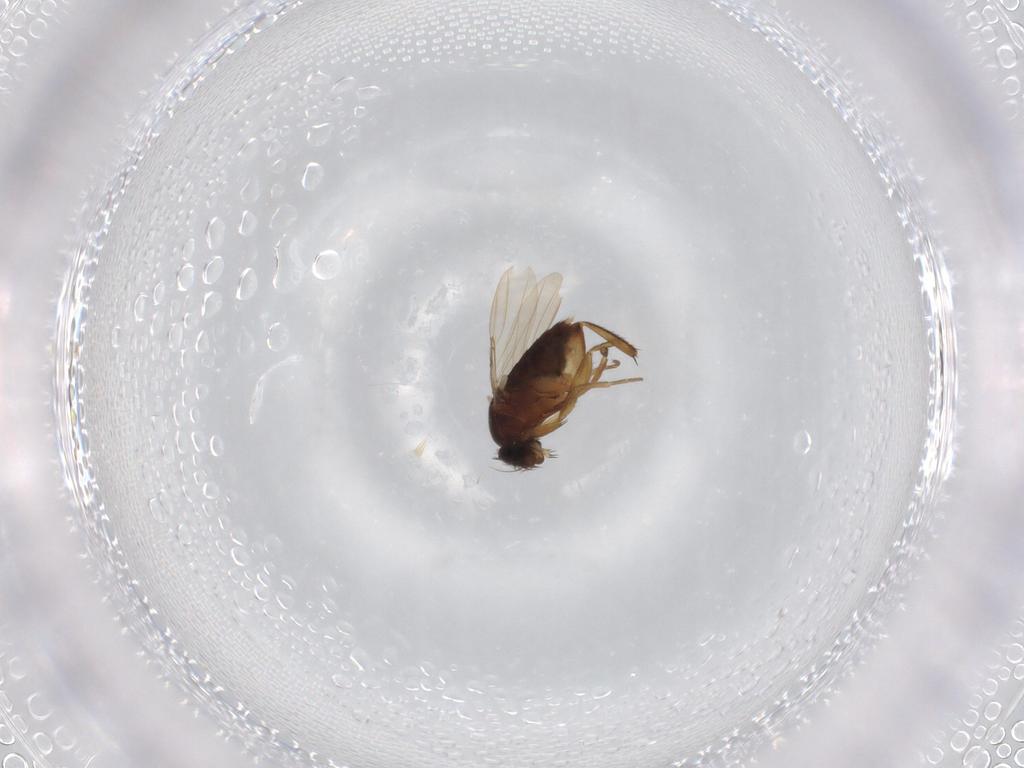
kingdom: Animalia
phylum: Arthropoda
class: Insecta
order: Diptera
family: Cecidomyiidae
